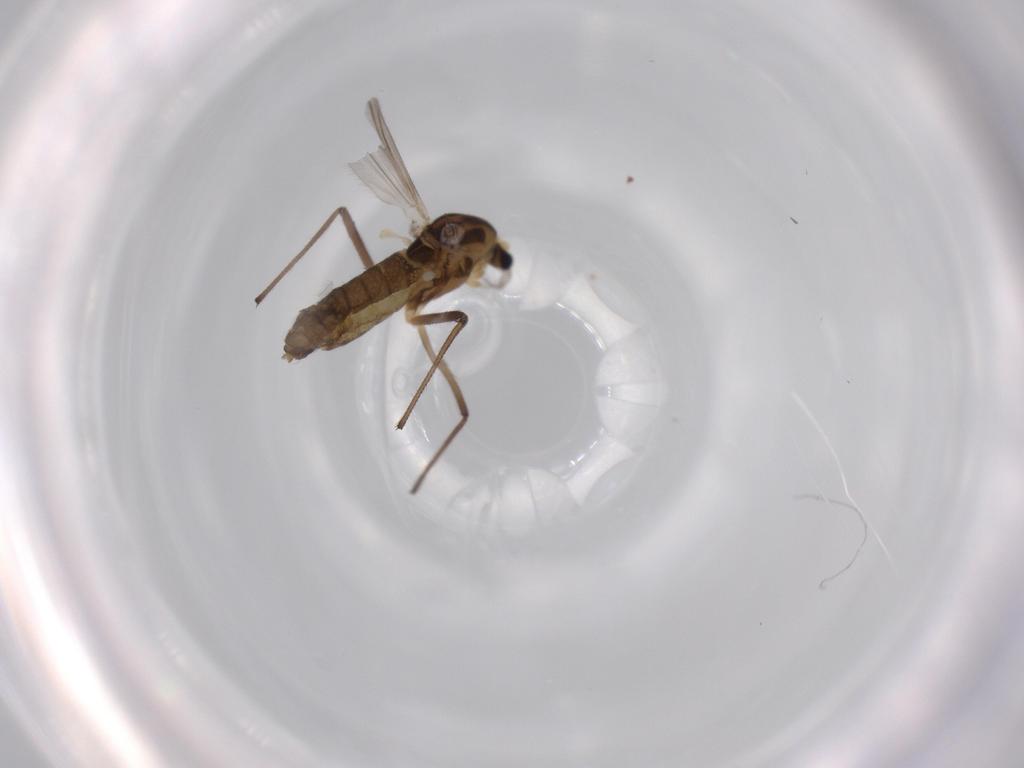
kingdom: Animalia
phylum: Arthropoda
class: Insecta
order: Diptera
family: Chironomidae
